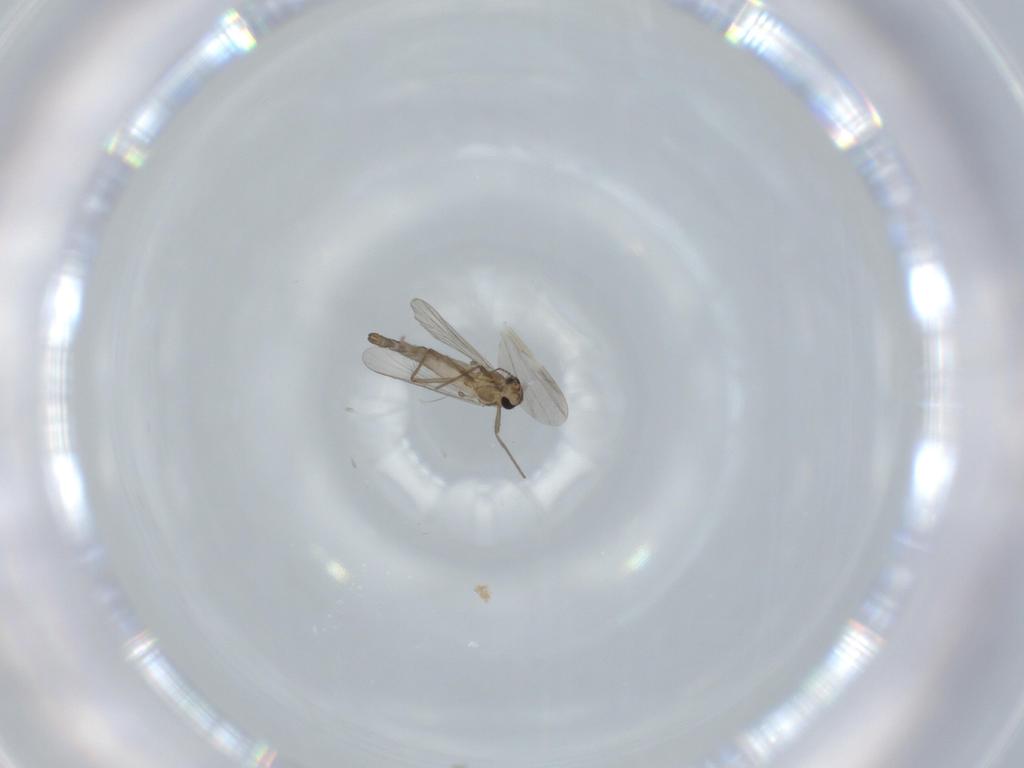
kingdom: Animalia
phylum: Arthropoda
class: Insecta
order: Diptera
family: Chironomidae
